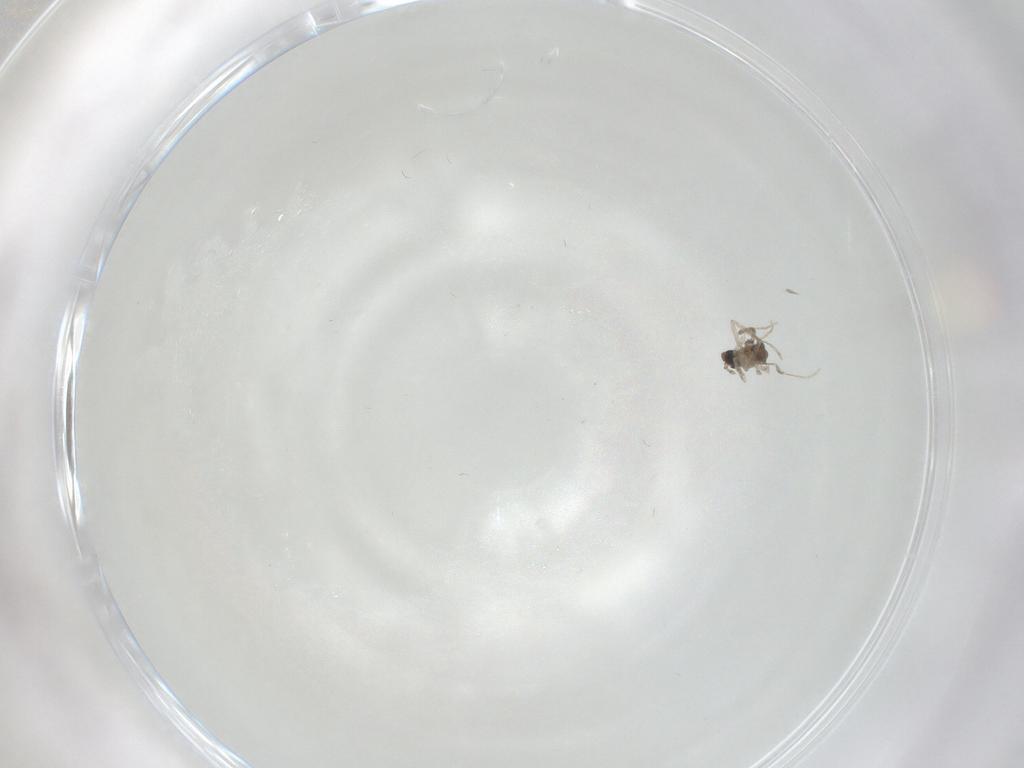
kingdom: Animalia
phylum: Arthropoda
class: Insecta
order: Diptera
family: Cecidomyiidae
